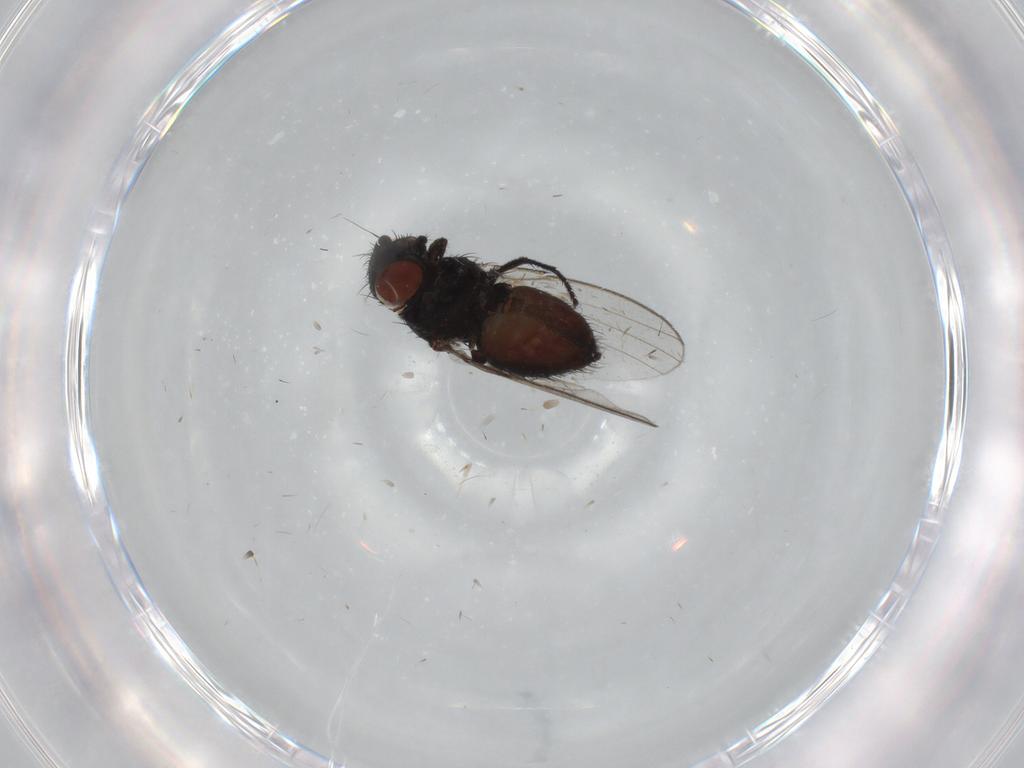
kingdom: Animalia
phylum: Arthropoda
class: Insecta
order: Diptera
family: Milichiidae
